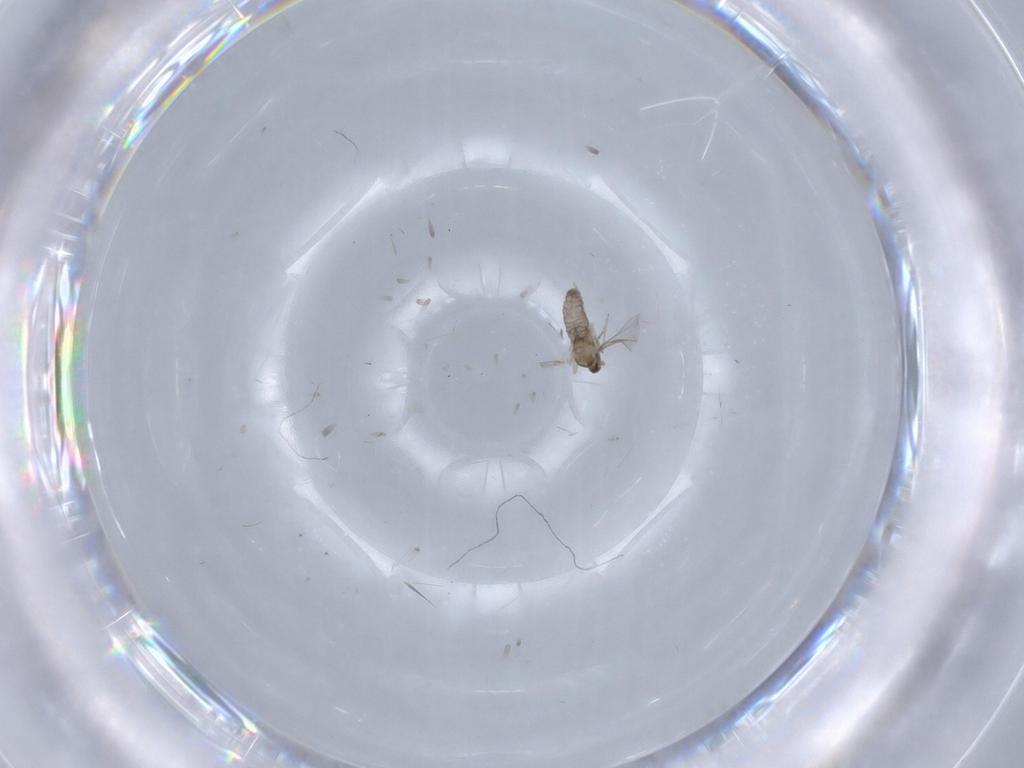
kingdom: Animalia
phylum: Arthropoda
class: Insecta
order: Diptera
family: Cecidomyiidae
